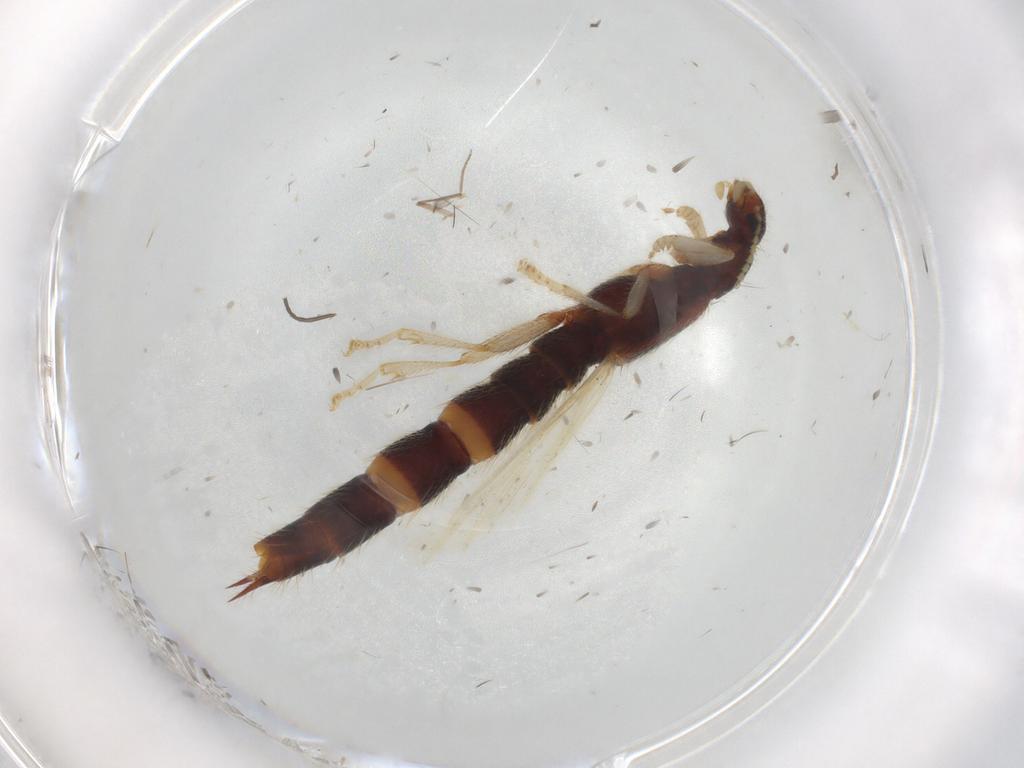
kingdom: Animalia
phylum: Arthropoda
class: Insecta
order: Coleoptera
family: Staphylinidae
